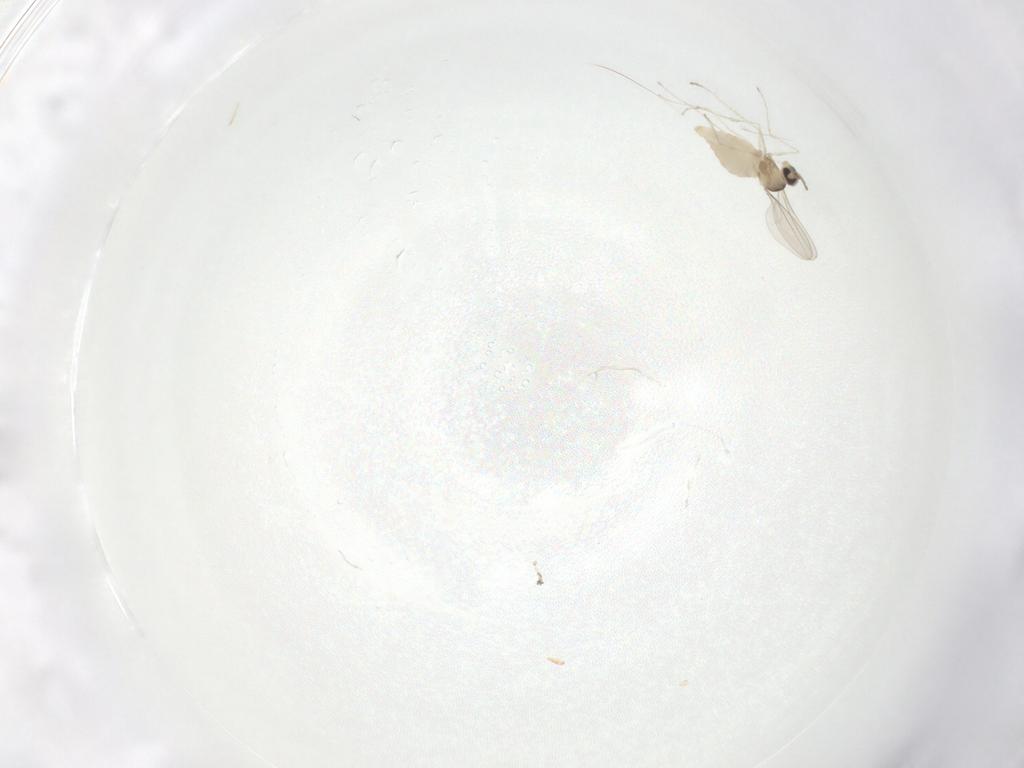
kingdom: Animalia
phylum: Arthropoda
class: Insecta
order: Diptera
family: Cecidomyiidae
